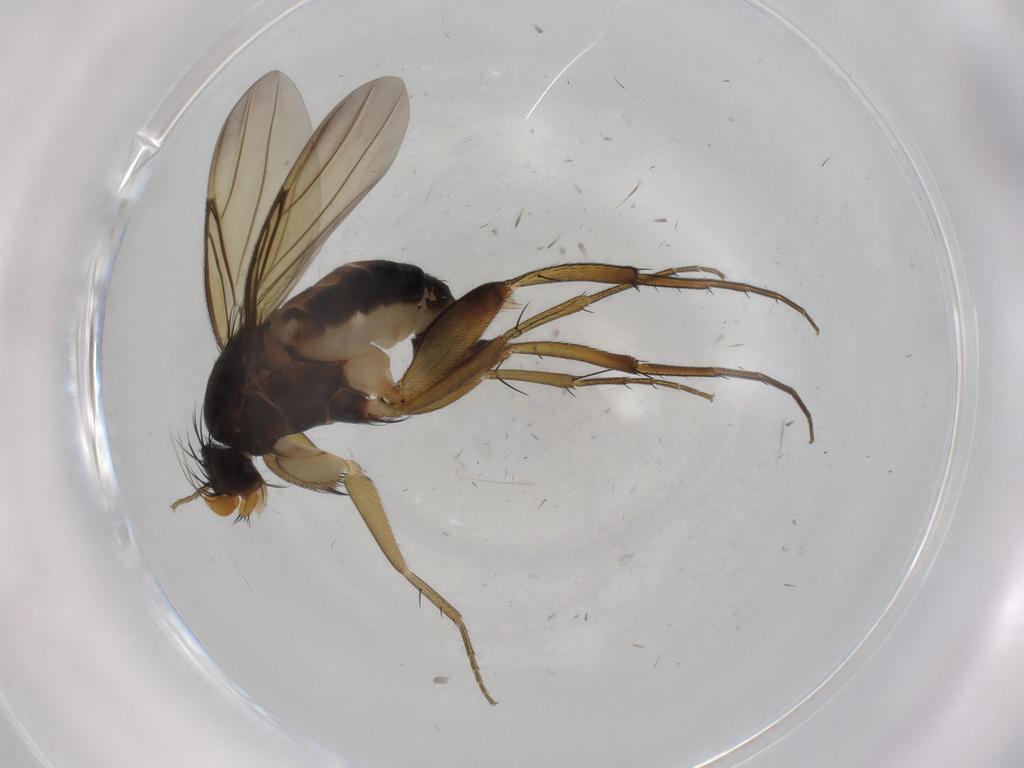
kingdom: Animalia
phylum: Arthropoda
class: Insecta
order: Diptera
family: Phoridae
